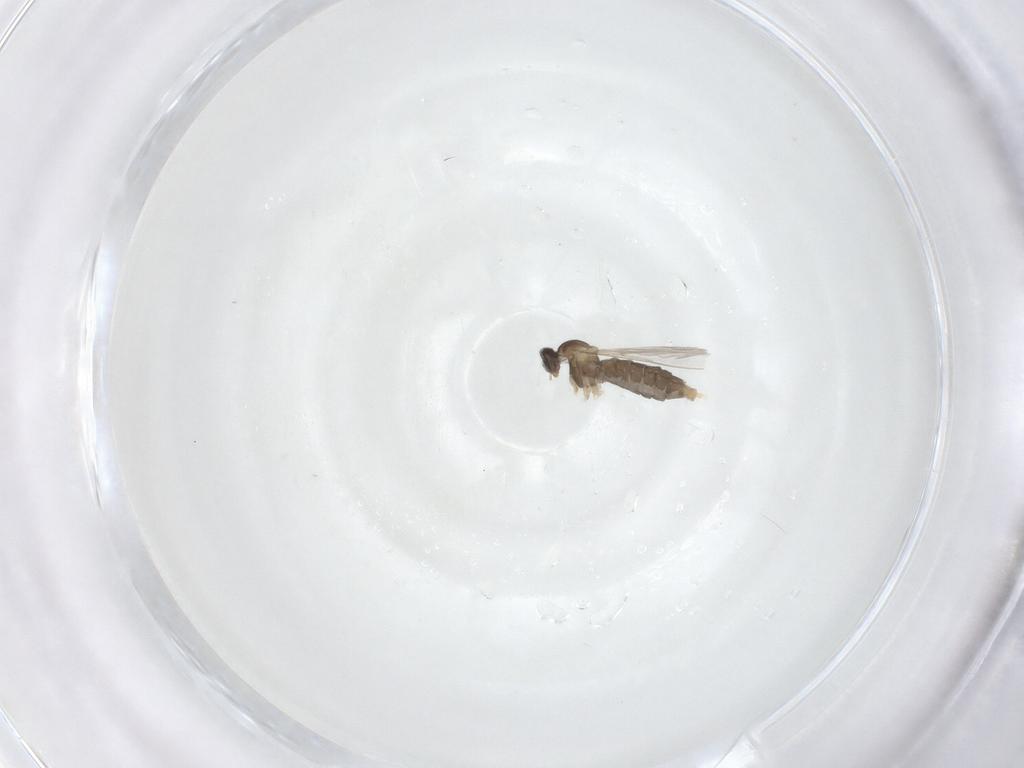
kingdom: Animalia
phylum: Arthropoda
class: Insecta
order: Diptera
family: Cecidomyiidae
